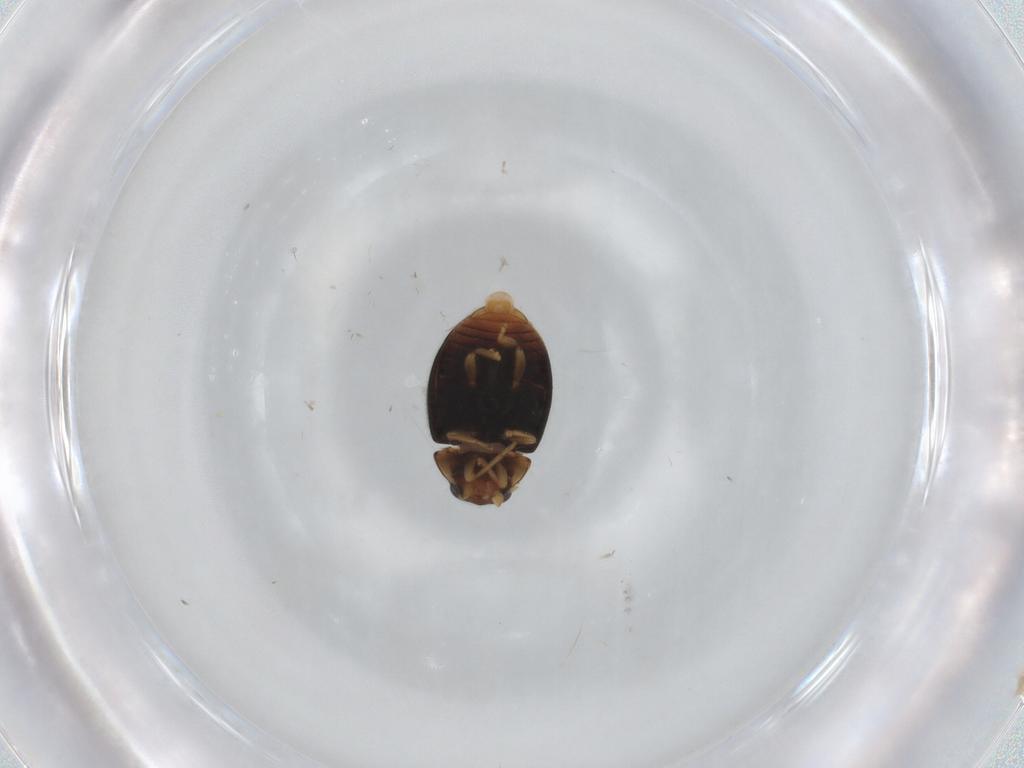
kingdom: Animalia
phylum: Arthropoda
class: Insecta
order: Coleoptera
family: Coccinellidae
